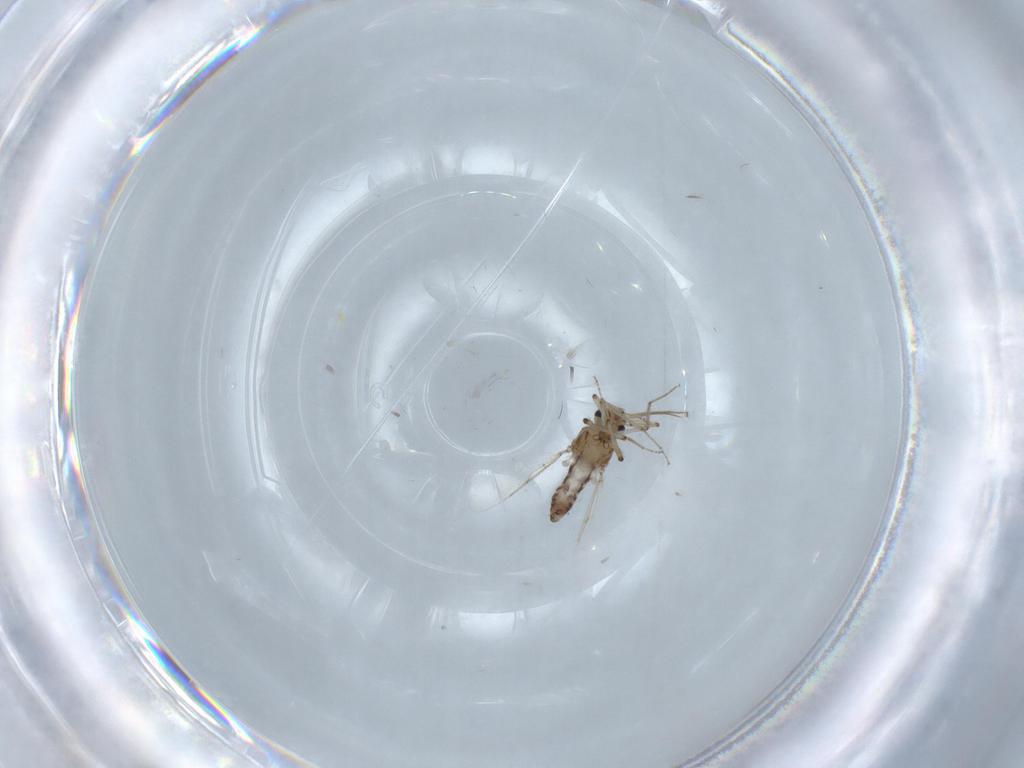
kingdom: Animalia
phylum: Arthropoda
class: Insecta
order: Diptera
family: Ceratopogonidae
